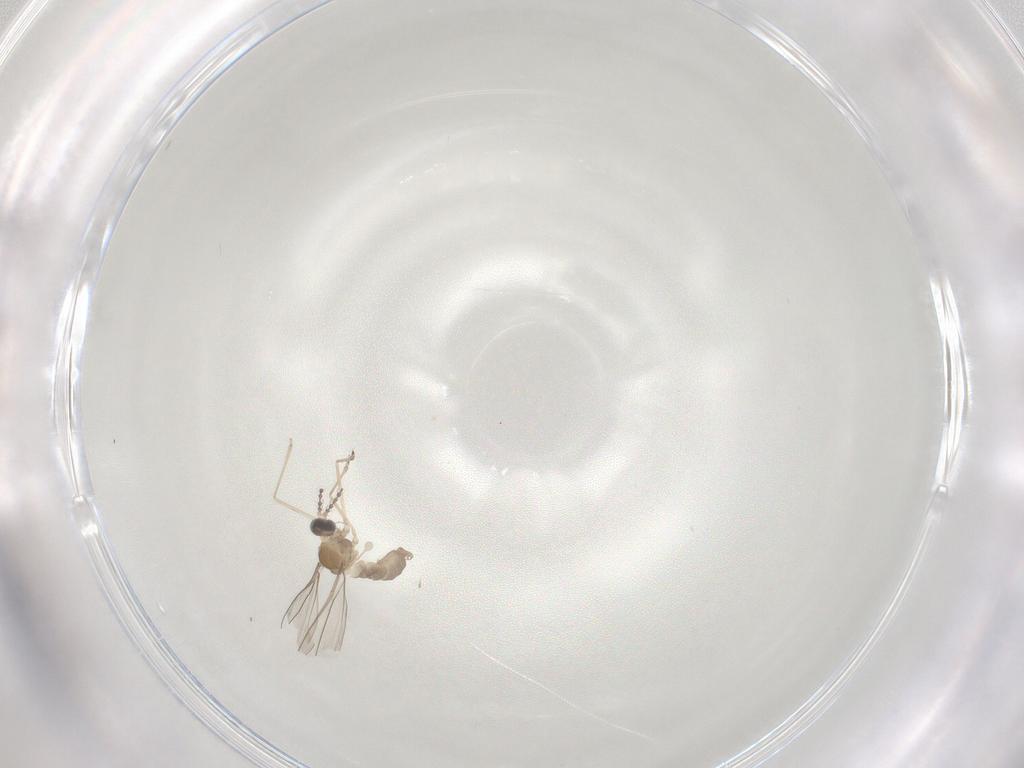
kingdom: Animalia
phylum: Arthropoda
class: Insecta
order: Diptera
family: Cecidomyiidae
